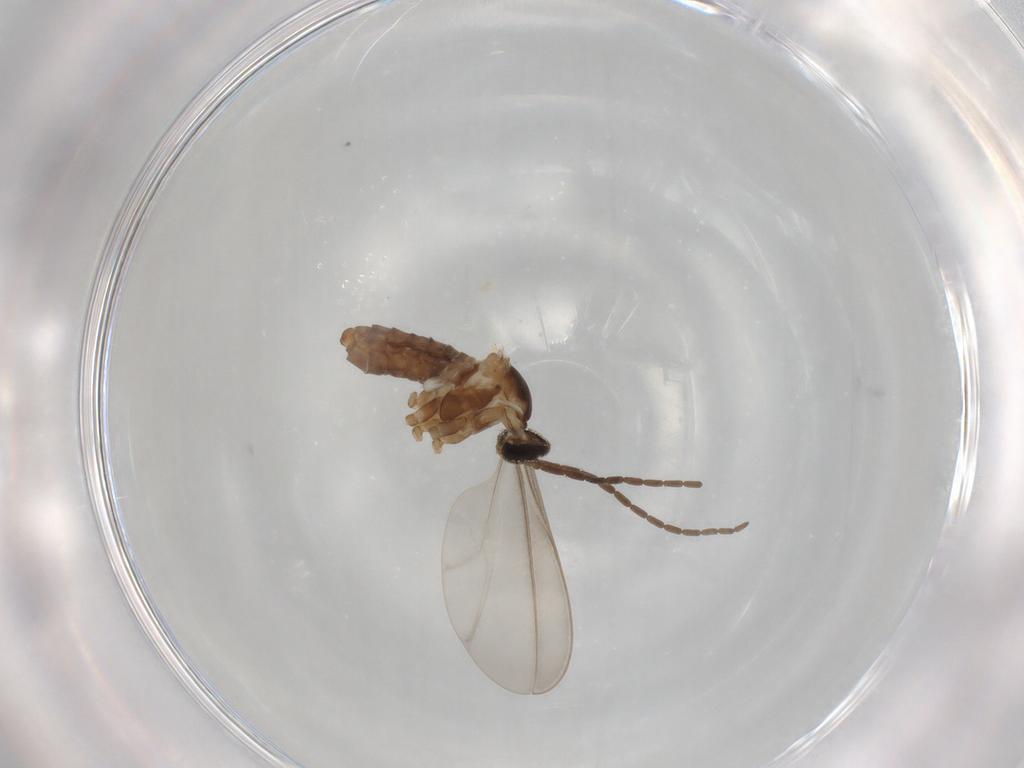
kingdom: Animalia
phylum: Arthropoda
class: Insecta
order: Diptera
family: Cecidomyiidae
